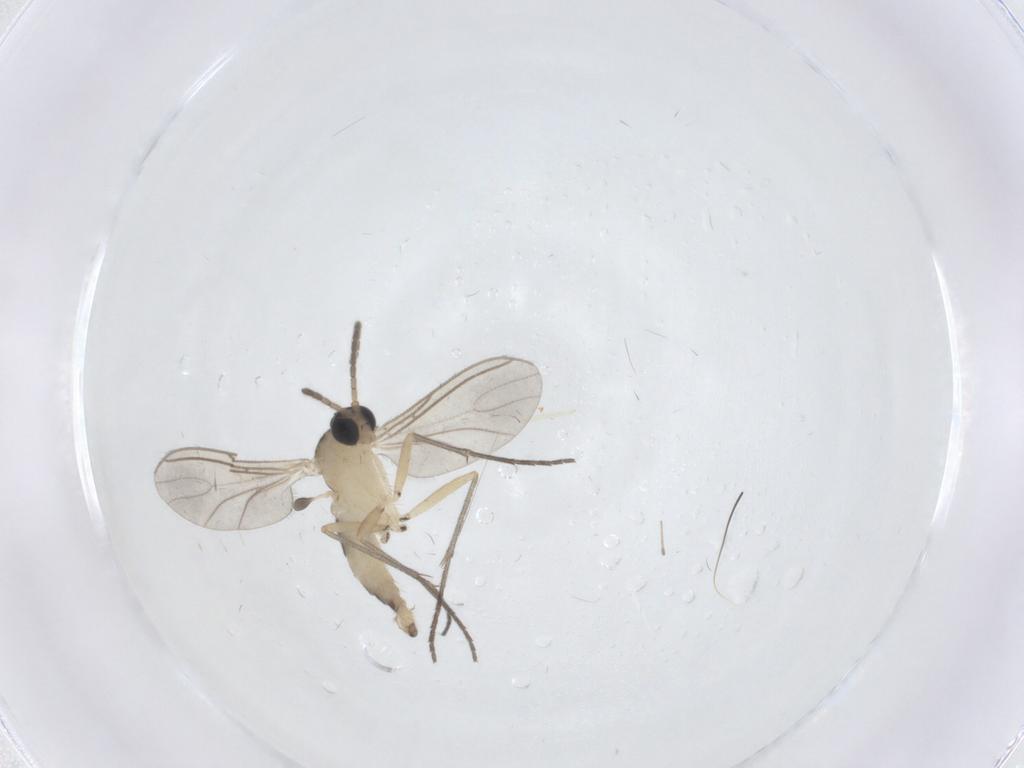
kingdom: Animalia
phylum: Arthropoda
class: Insecta
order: Diptera
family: Sciaridae
